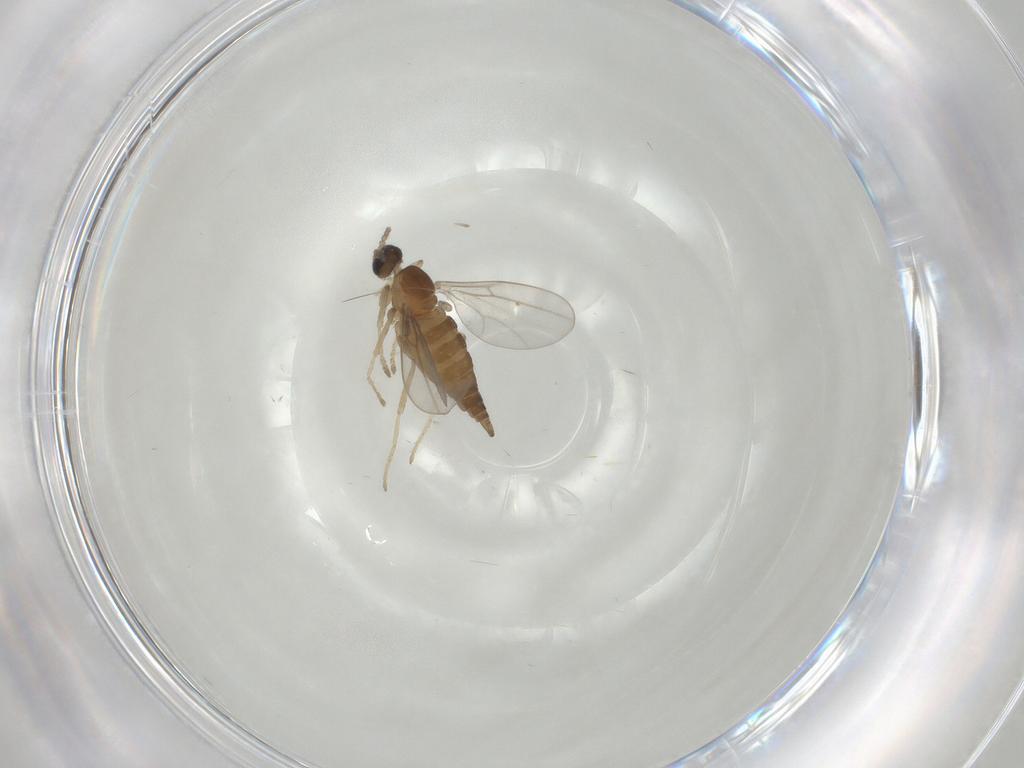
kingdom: Animalia
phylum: Arthropoda
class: Insecta
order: Diptera
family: Cecidomyiidae
